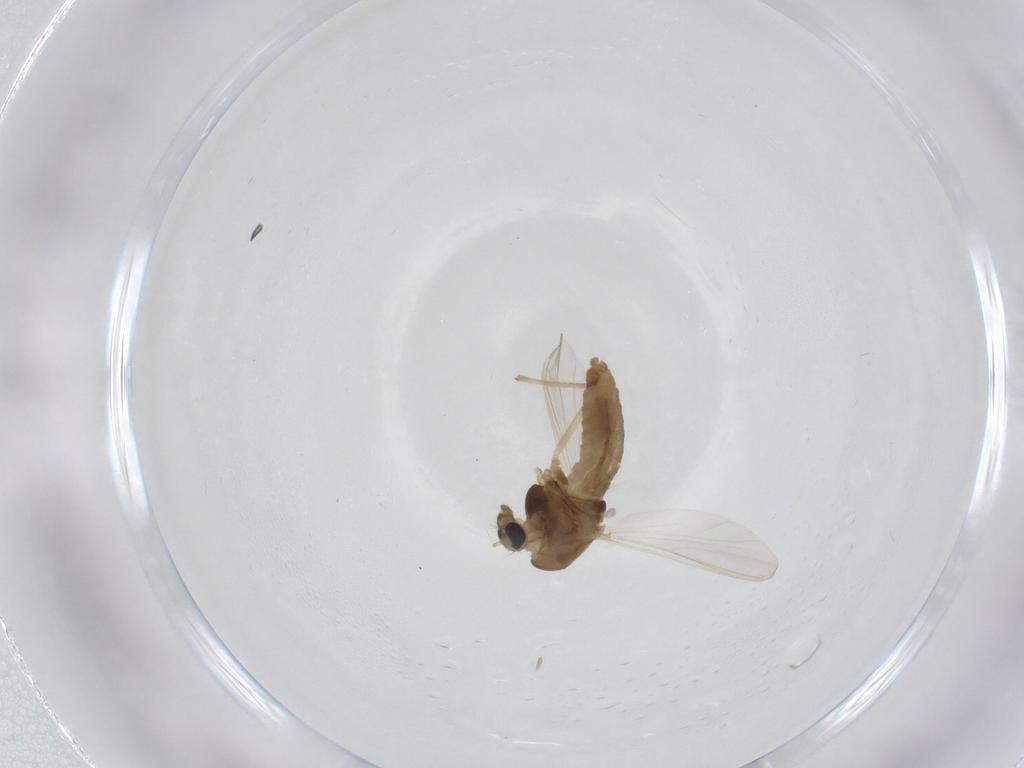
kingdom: Animalia
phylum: Arthropoda
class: Insecta
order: Diptera
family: Chironomidae
